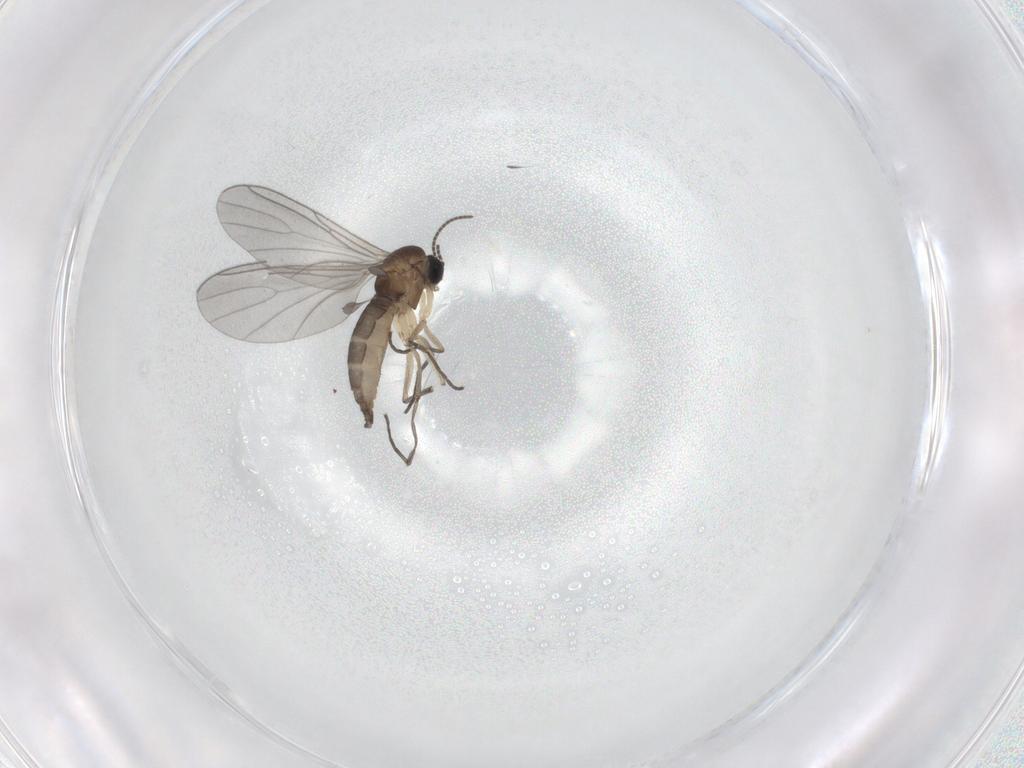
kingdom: Animalia
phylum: Arthropoda
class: Insecta
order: Diptera
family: Sciaridae
